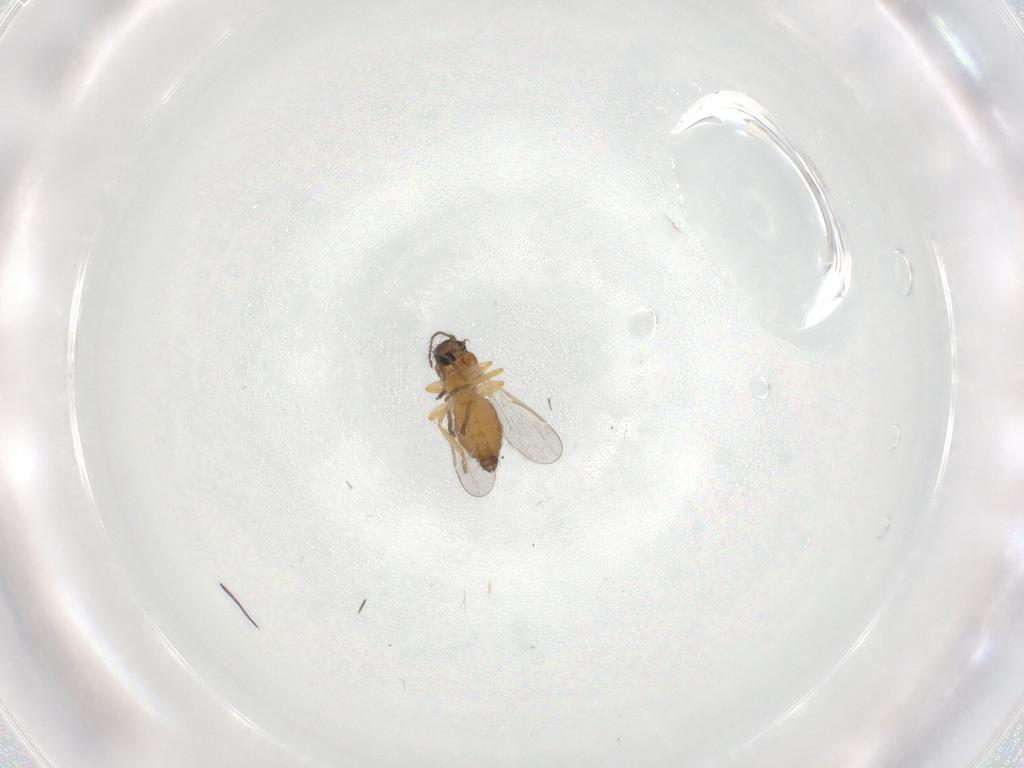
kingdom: Animalia
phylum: Arthropoda
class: Insecta
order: Diptera
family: Ceratopogonidae
